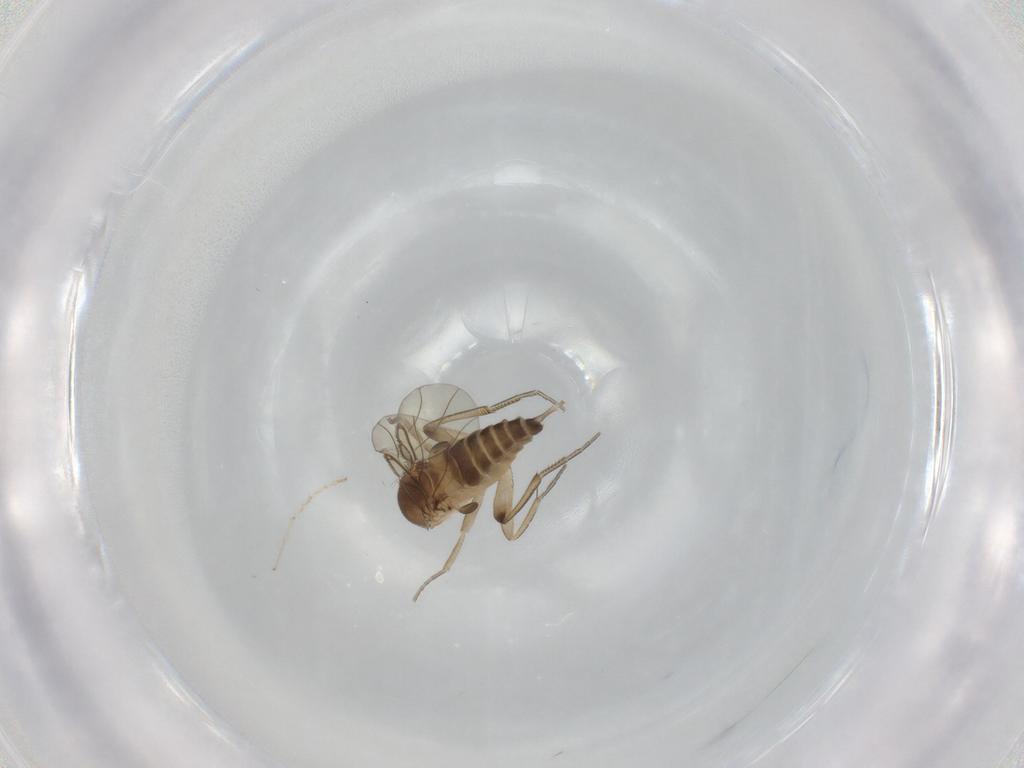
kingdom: Animalia
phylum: Arthropoda
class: Insecta
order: Diptera
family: Phoridae
